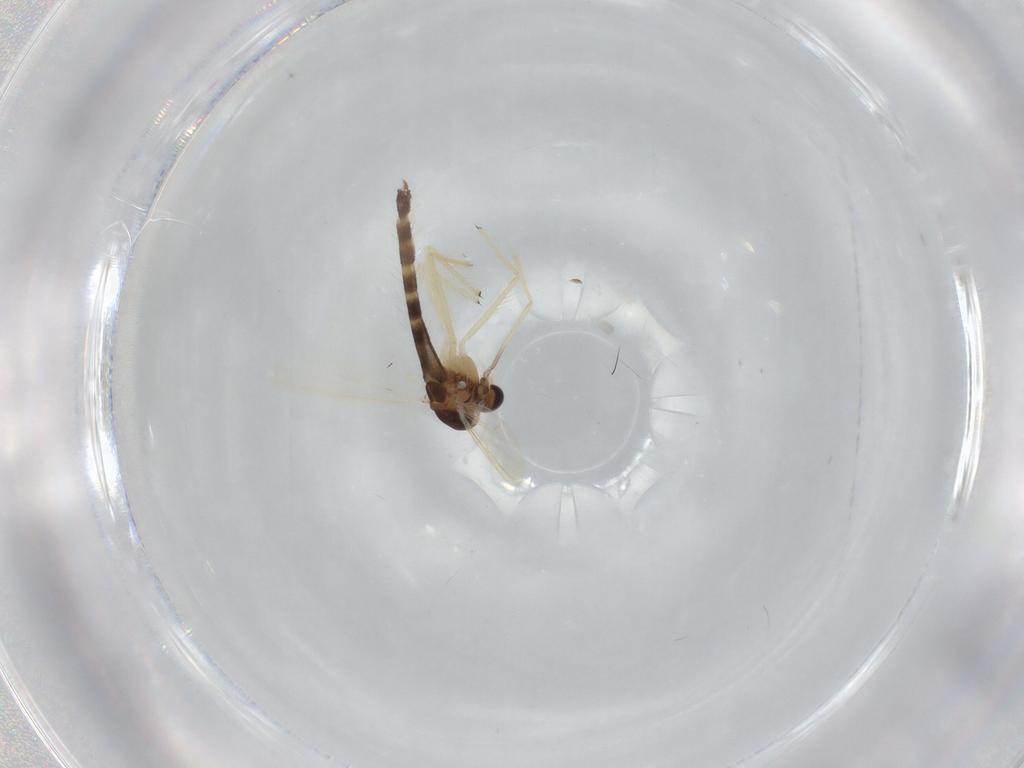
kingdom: Animalia
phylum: Arthropoda
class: Insecta
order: Diptera
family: Chironomidae
